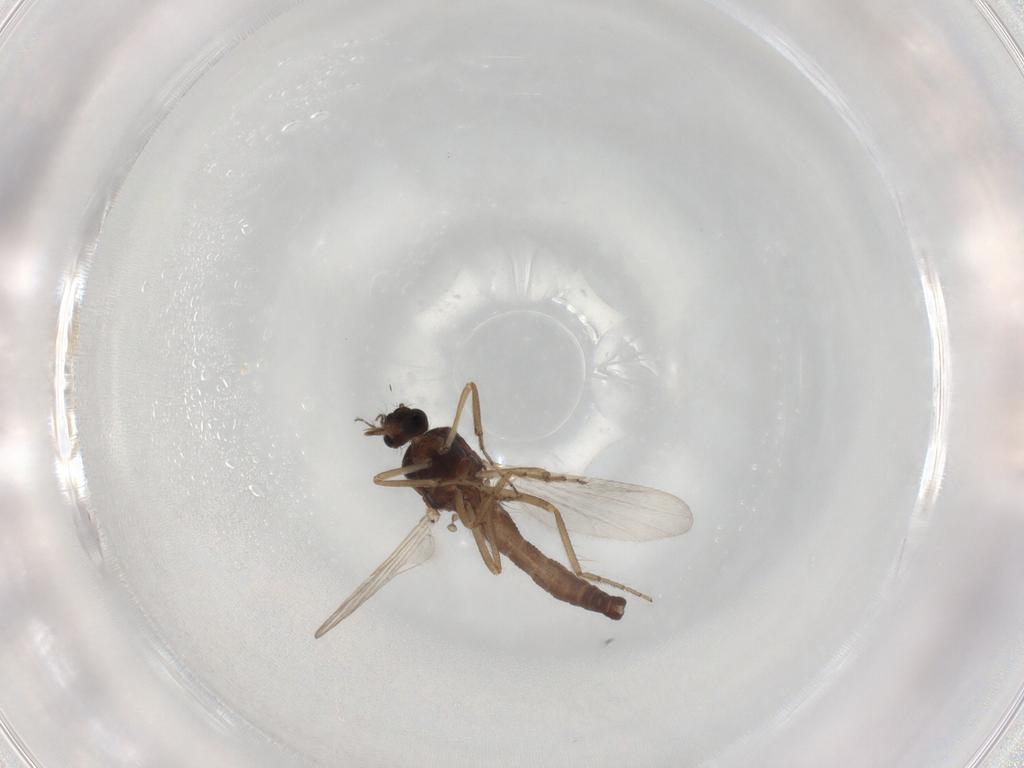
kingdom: Animalia
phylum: Arthropoda
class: Insecta
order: Diptera
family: Ceratopogonidae
